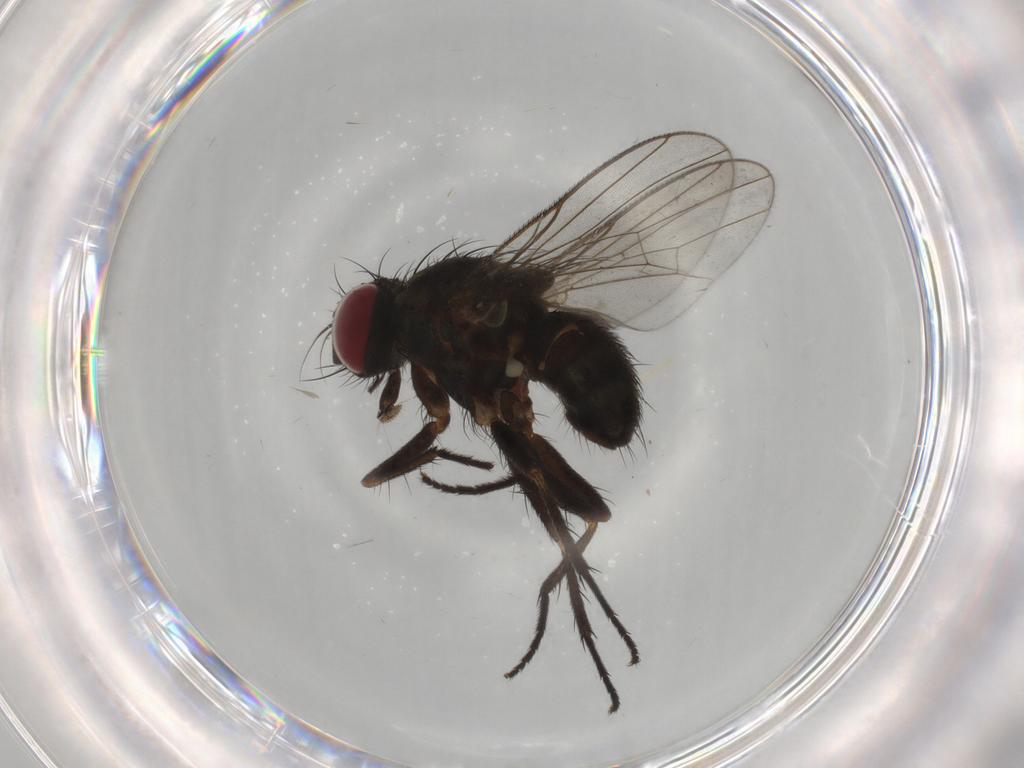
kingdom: Animalia
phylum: Arthropoda
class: Insecta
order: Diptera
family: Muscidae
